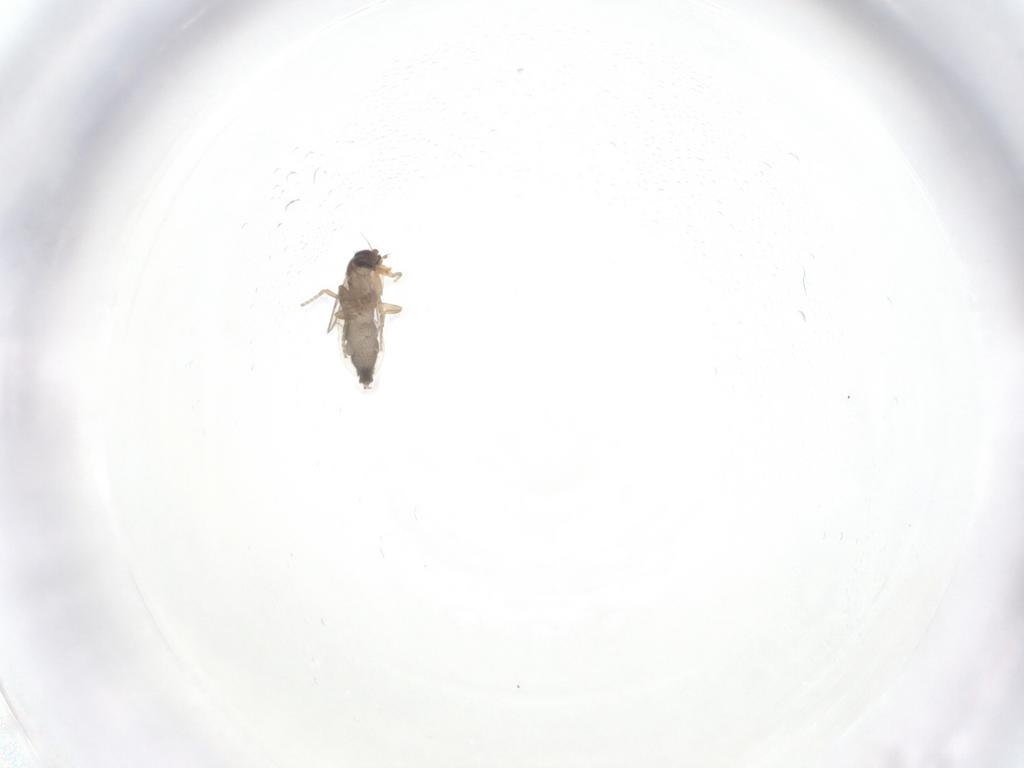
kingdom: Animalia
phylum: Arthropoda
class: Insecta
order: Diptera
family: Phoridae
